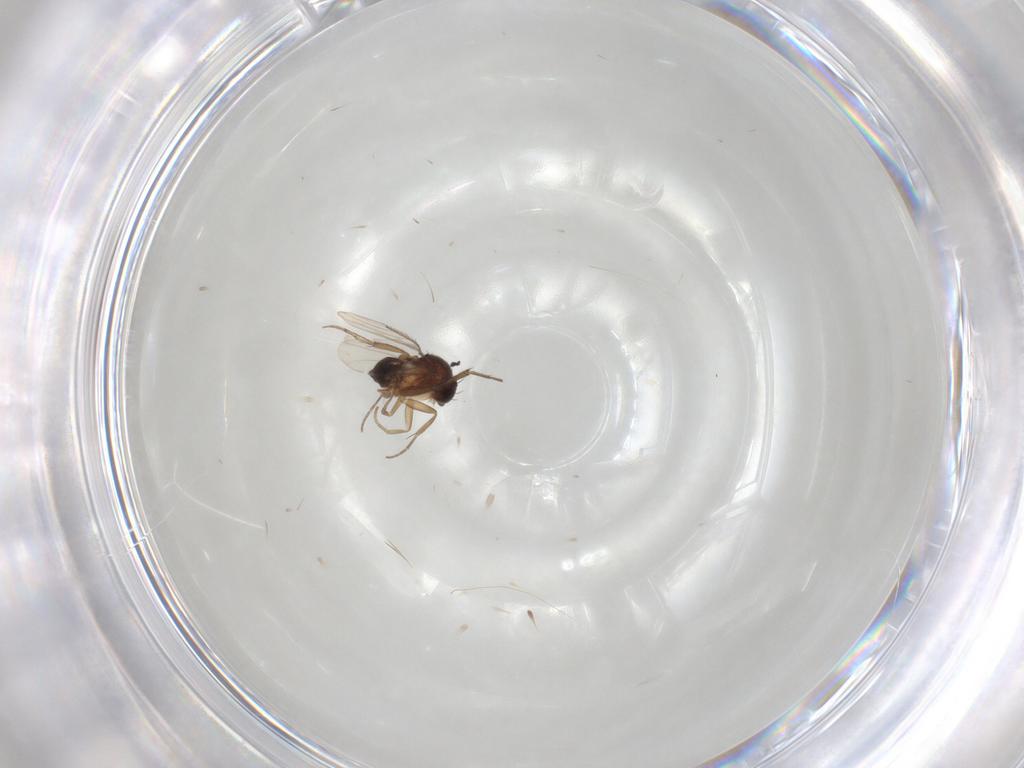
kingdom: Animalia
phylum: Arthropoda
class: Insecta
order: Diptera
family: Phoridae
